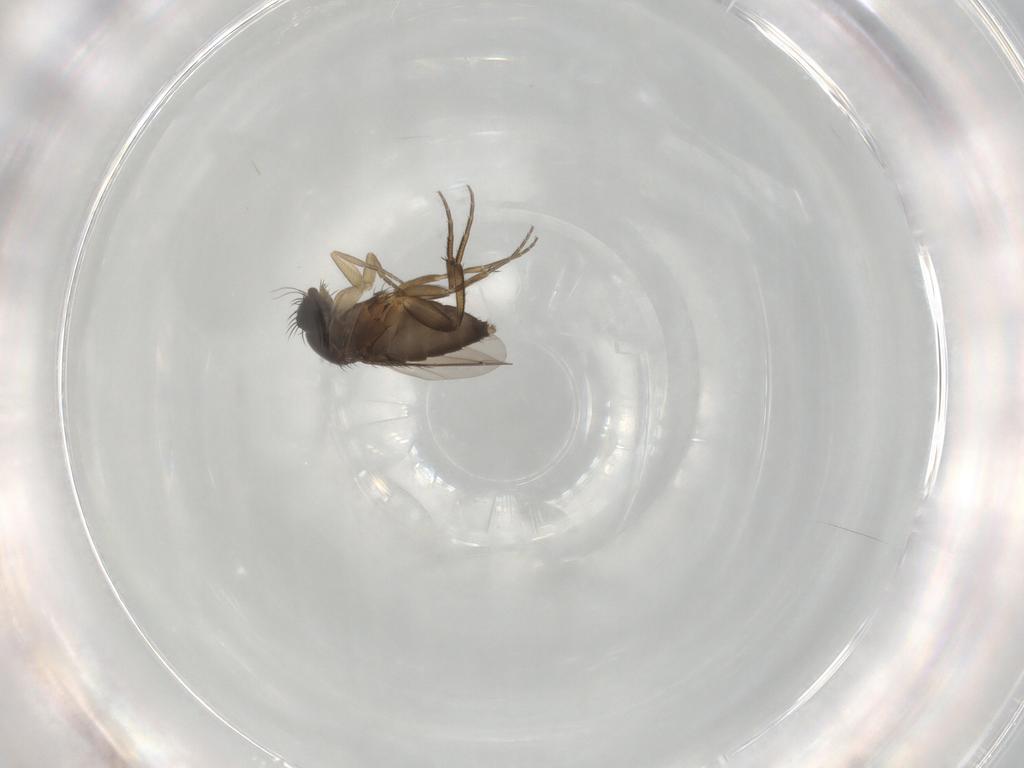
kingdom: Animalia
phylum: Arthropoda
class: Insecta
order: Diptera
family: Phoridae
